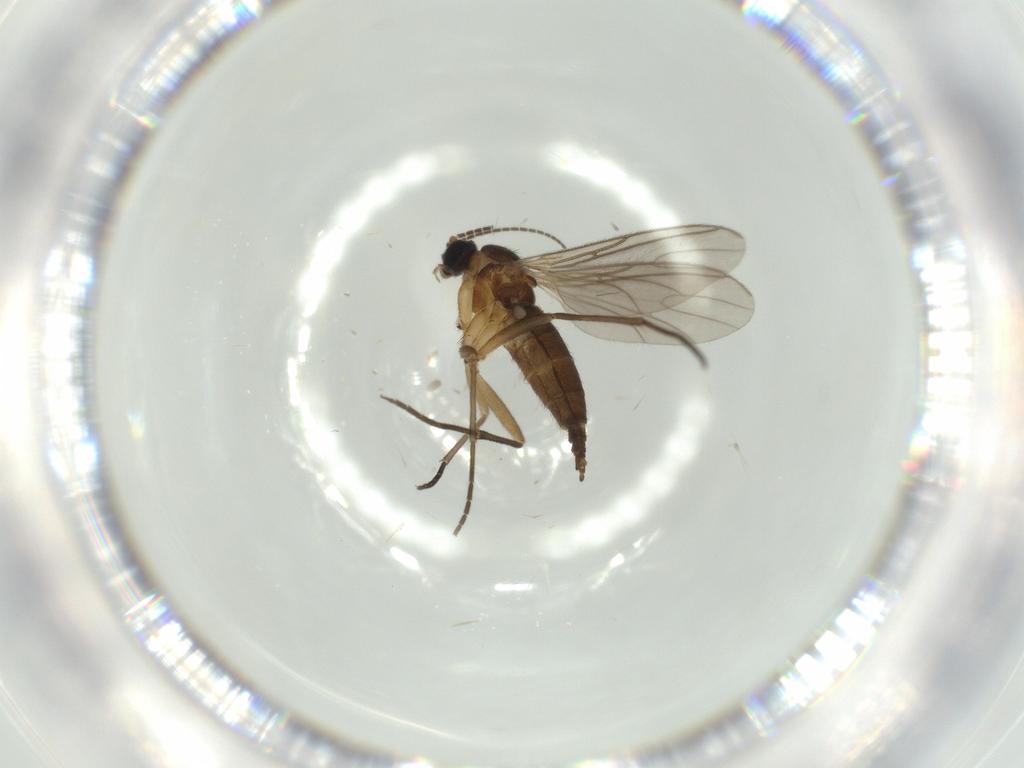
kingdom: Animalia
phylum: Arthropoda
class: Insecta
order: Diptera
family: Sciaridae
